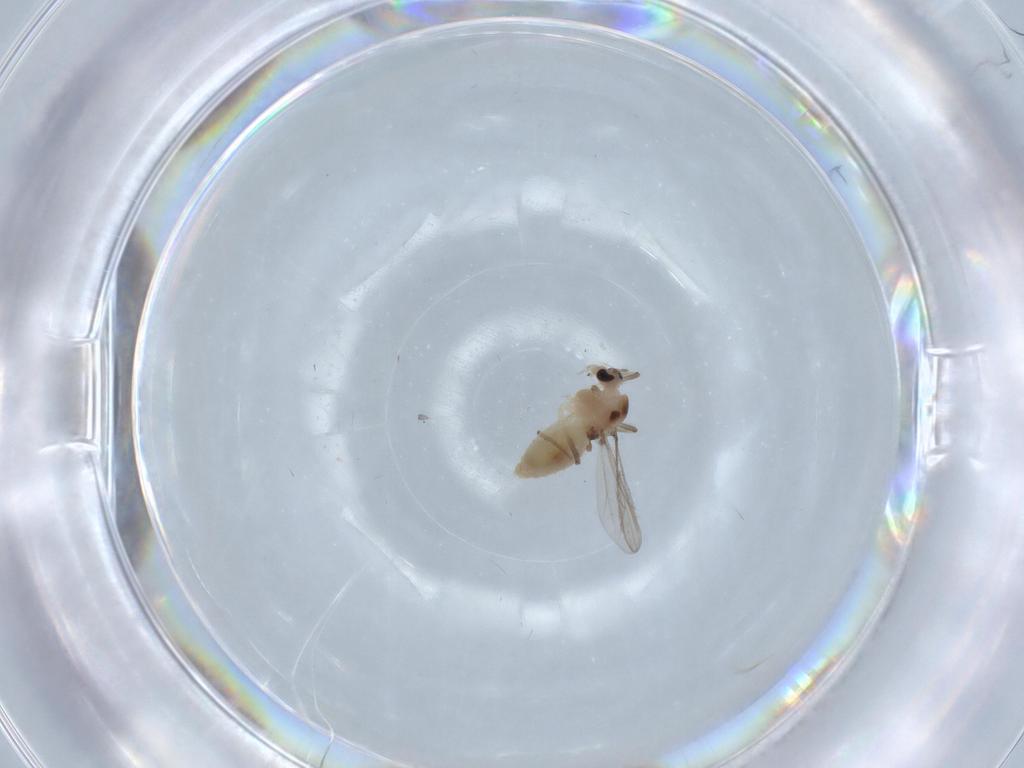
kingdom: Animalia
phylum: Arthropoda
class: Insecta
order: Diptera
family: Chironomidae
